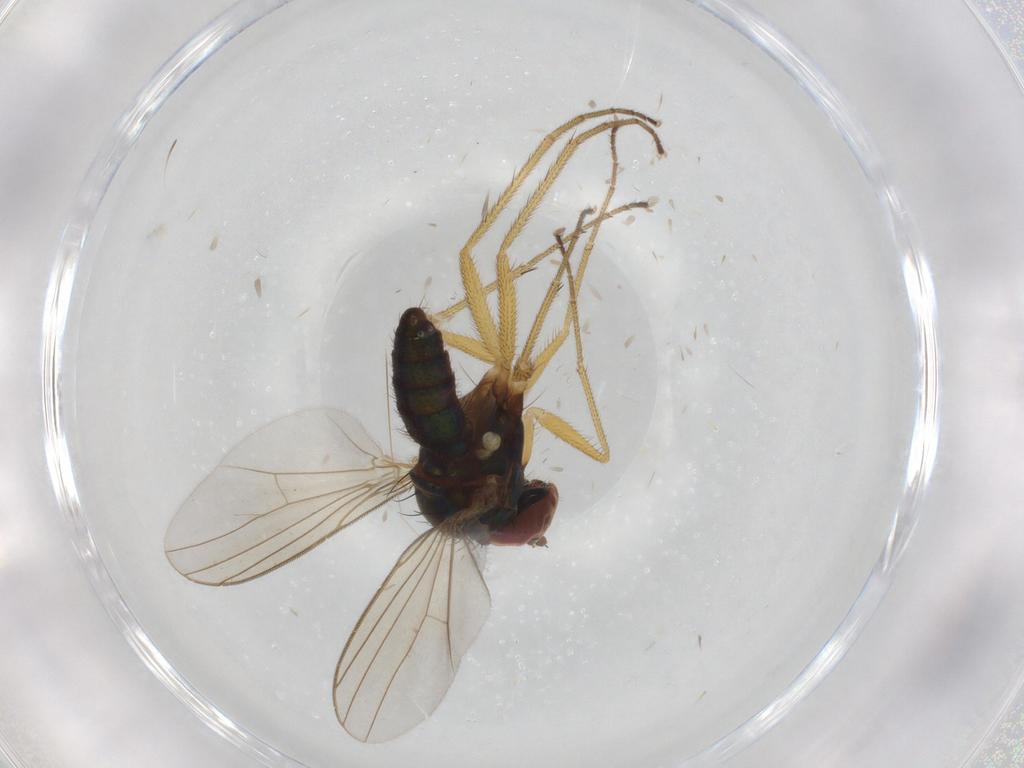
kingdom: Animalia
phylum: Arthropoda
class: Insecta
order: Diptera
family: Dolichopodidae
